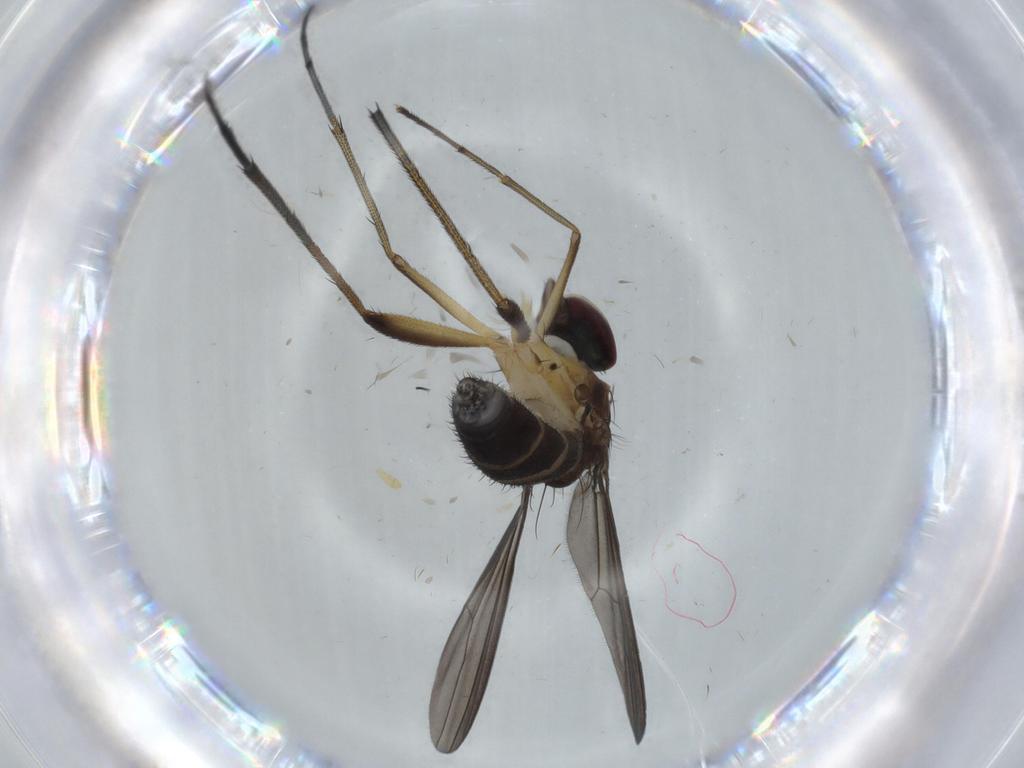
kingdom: Animalia
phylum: Arthropoda
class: Insecta
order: Diptera
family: Dolichopodidae
